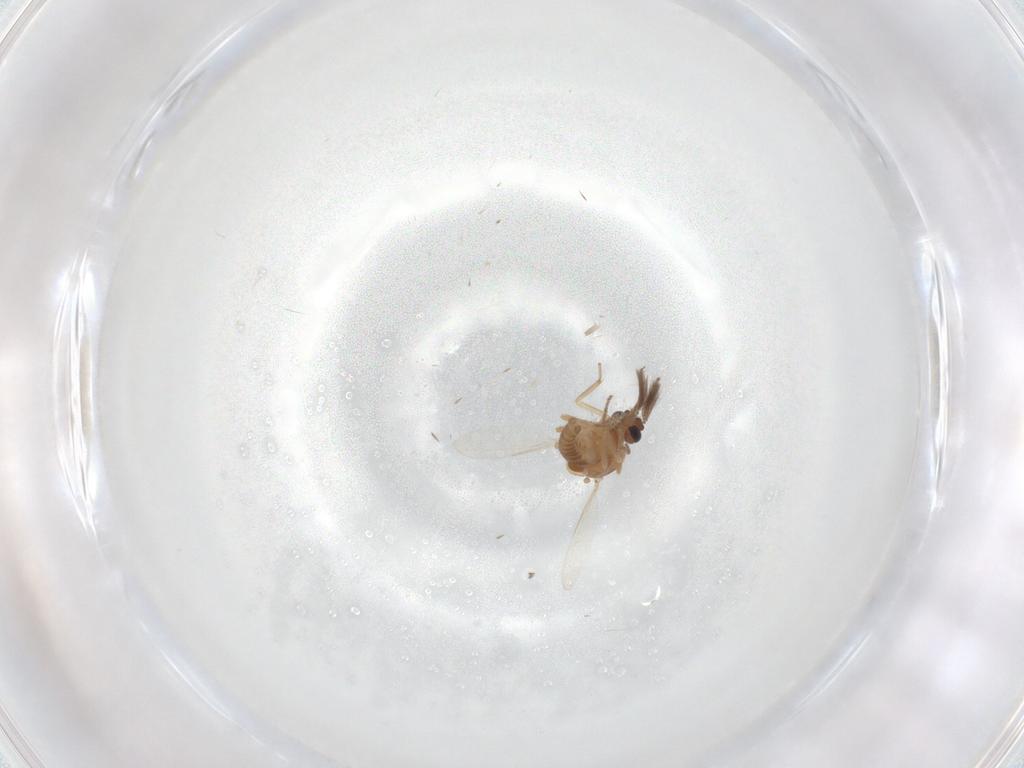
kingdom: Animalia
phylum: Arthropoda
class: Insecta
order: Diptera
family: Ceratopogonidae
